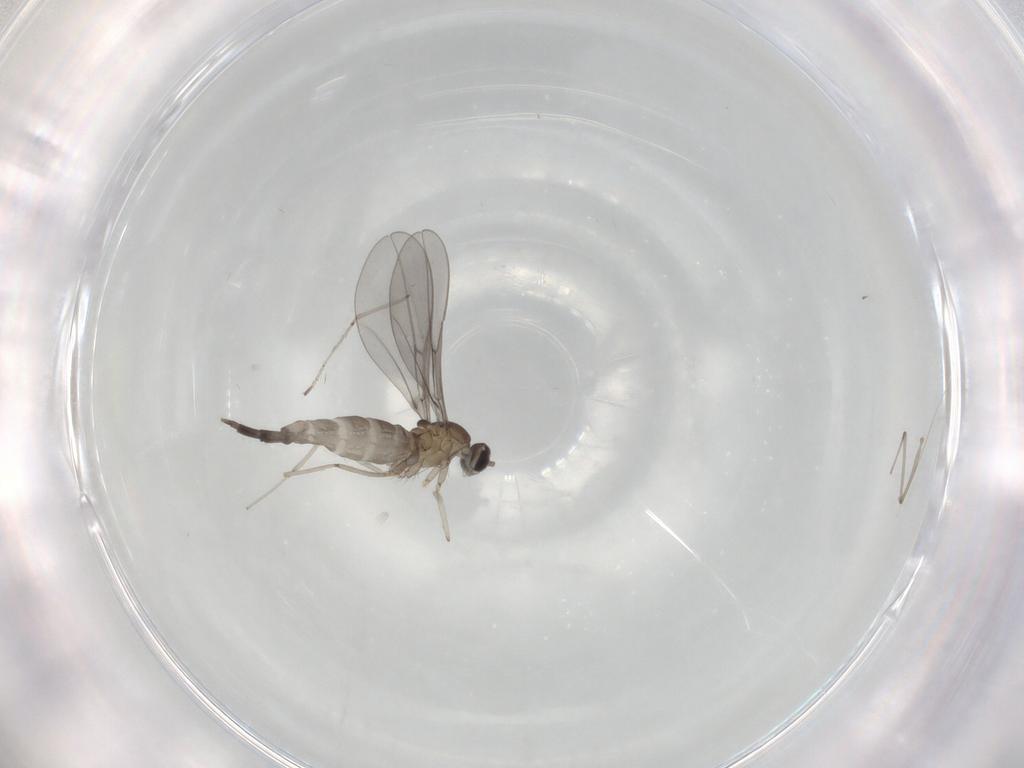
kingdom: Animalia
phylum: Arthropoda
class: Insecta
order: Diptera
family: Cecidomyiidae
